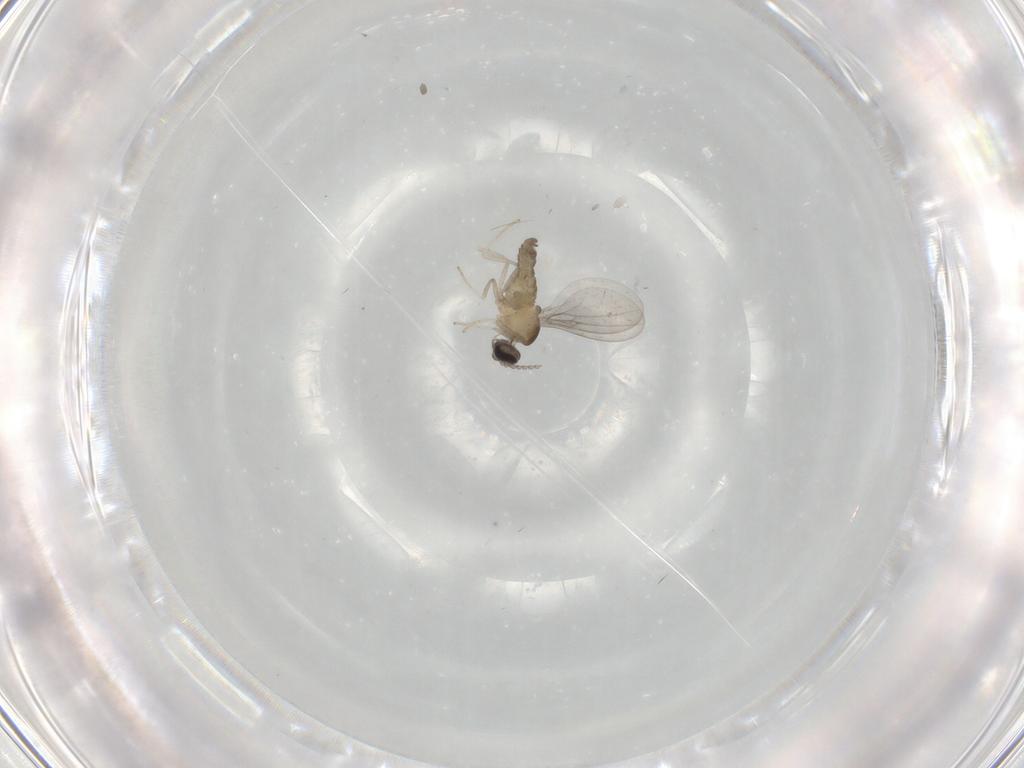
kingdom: Animalia
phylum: Arthropoda
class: Insecta
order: Diptera
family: Cecidomyiidae
